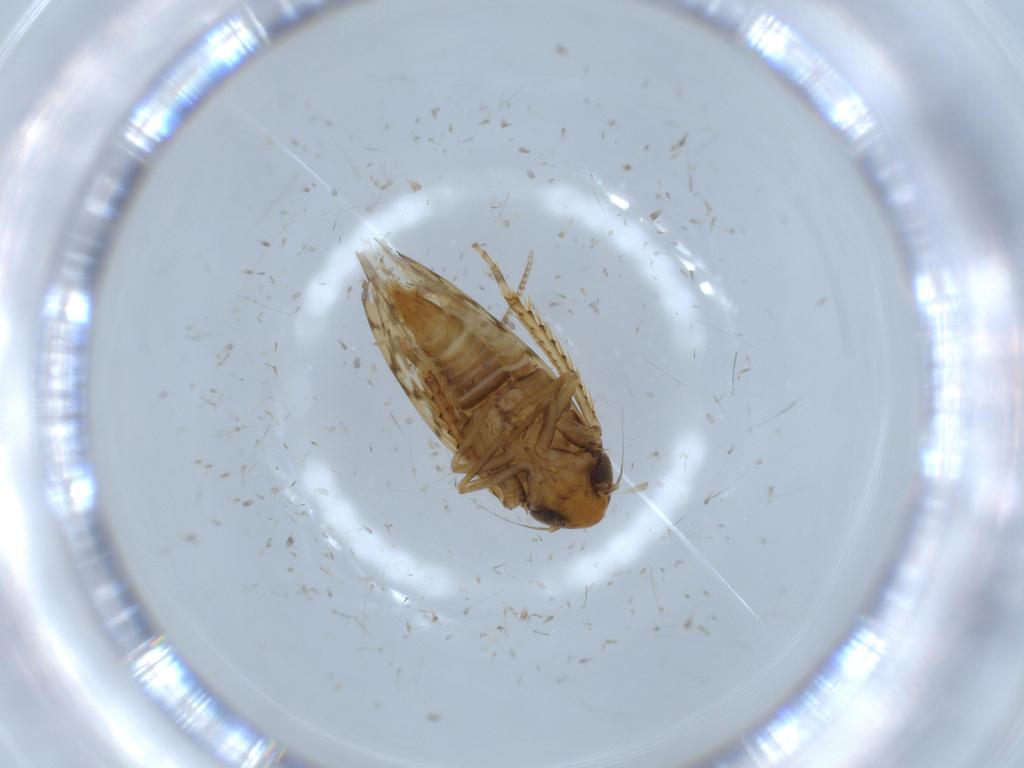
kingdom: Animalia
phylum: Arthropoda
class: Insecta
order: Hemiptera
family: Cicadellidae
